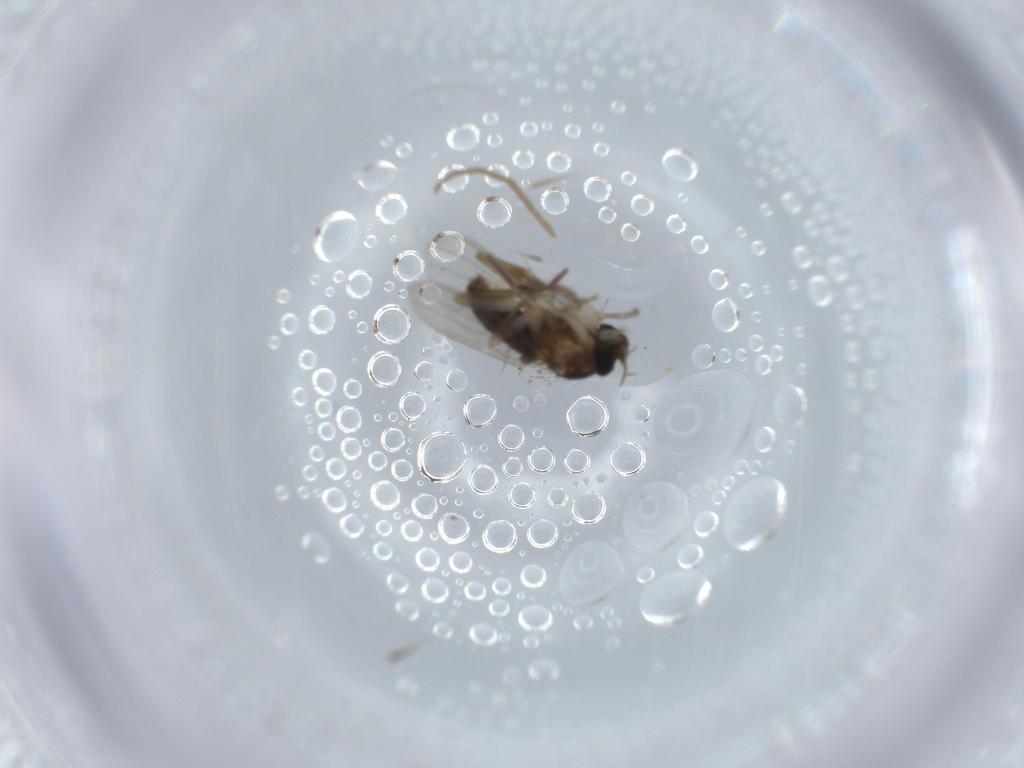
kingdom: Animalia
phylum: Arthropoda
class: Insecta
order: Diptera
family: Cecidomyiidae
